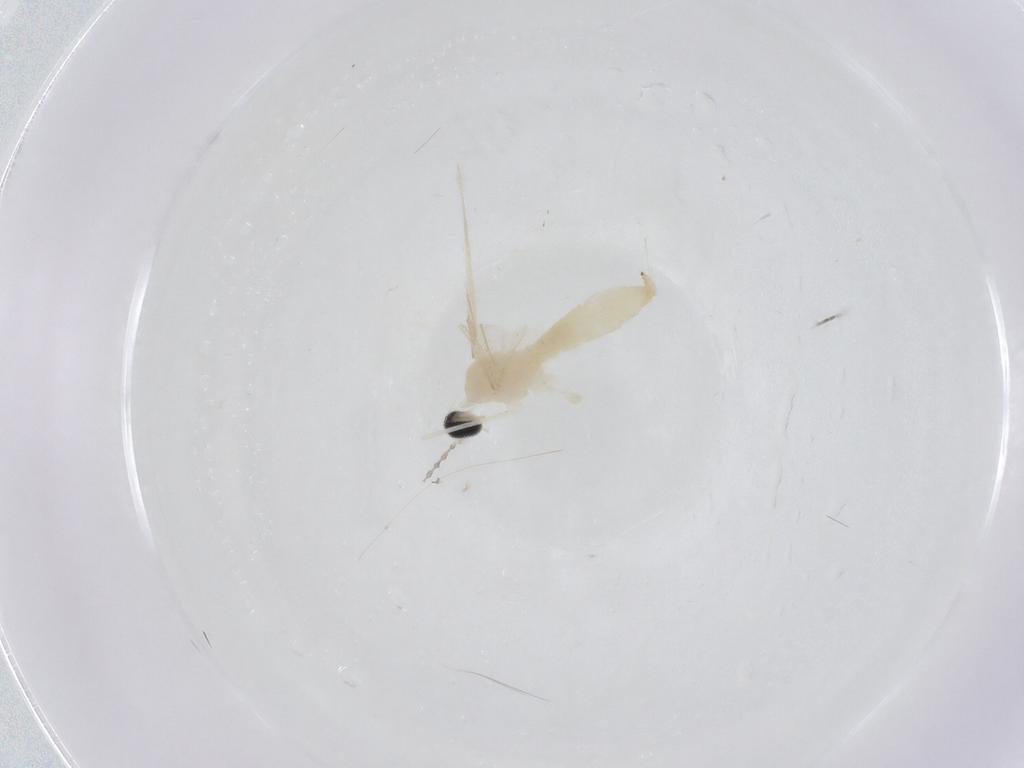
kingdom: Animalia
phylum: Arthropoda
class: Insecta
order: Diptera
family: Cecidomyiidae
